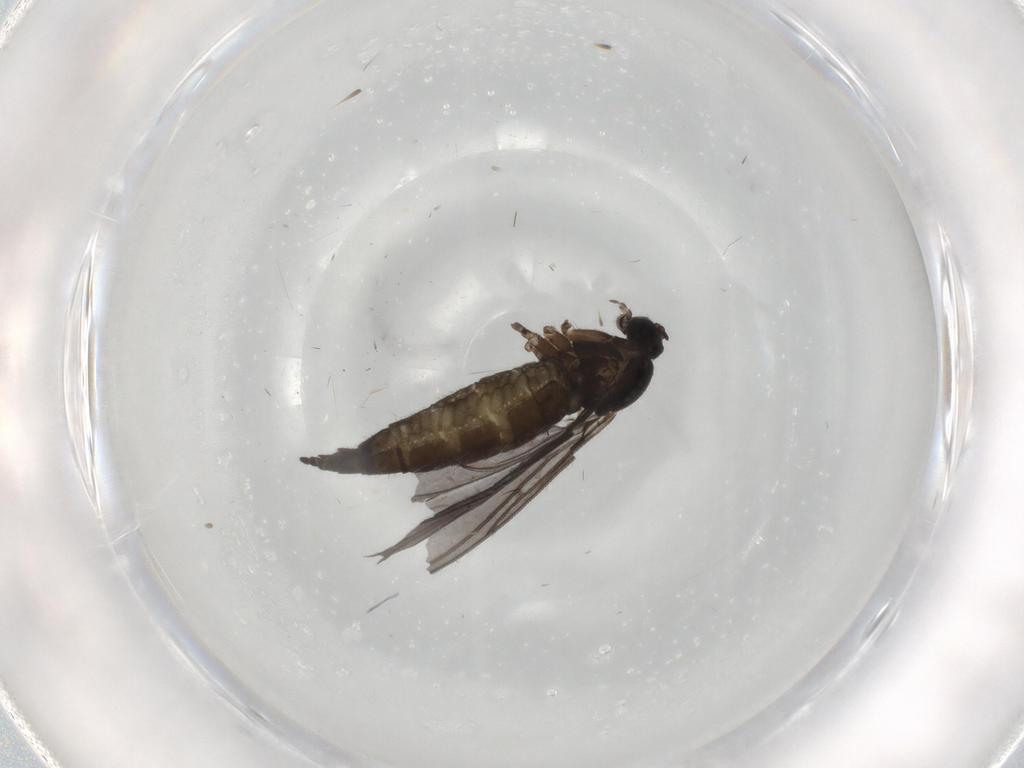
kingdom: Animalia
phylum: Arthropoda
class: Insecta
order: Diptera
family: Sciaridae
